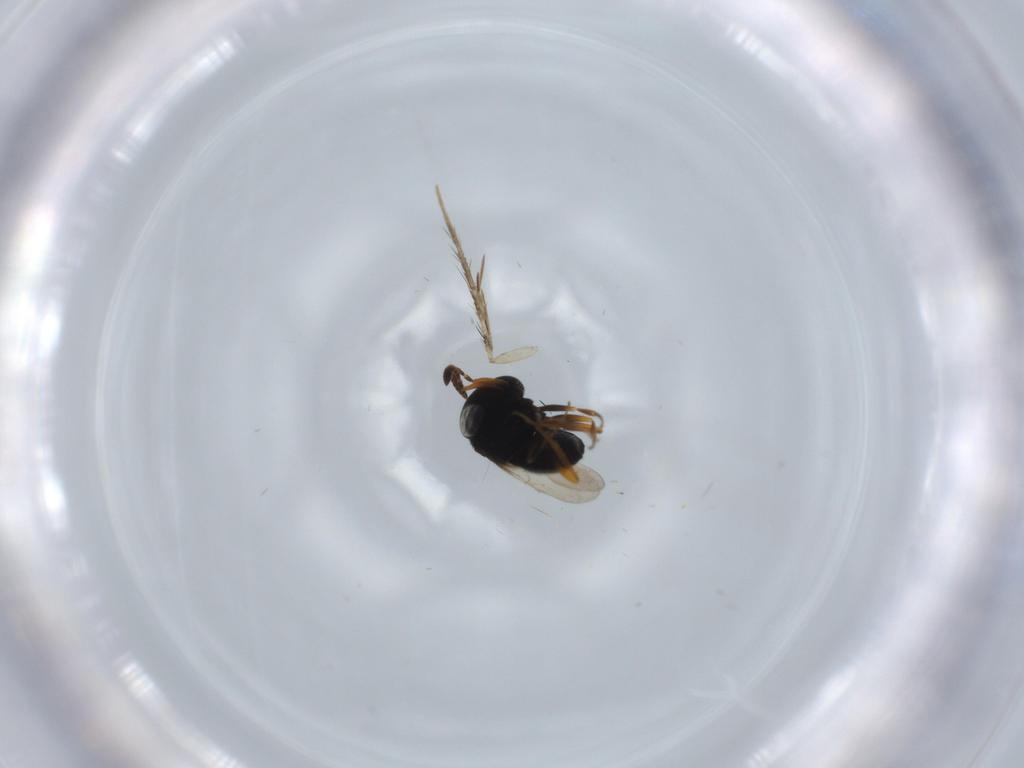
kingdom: Animalia
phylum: Arthropoda
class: Insecta
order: Hymenoptera
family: Scelionidae
